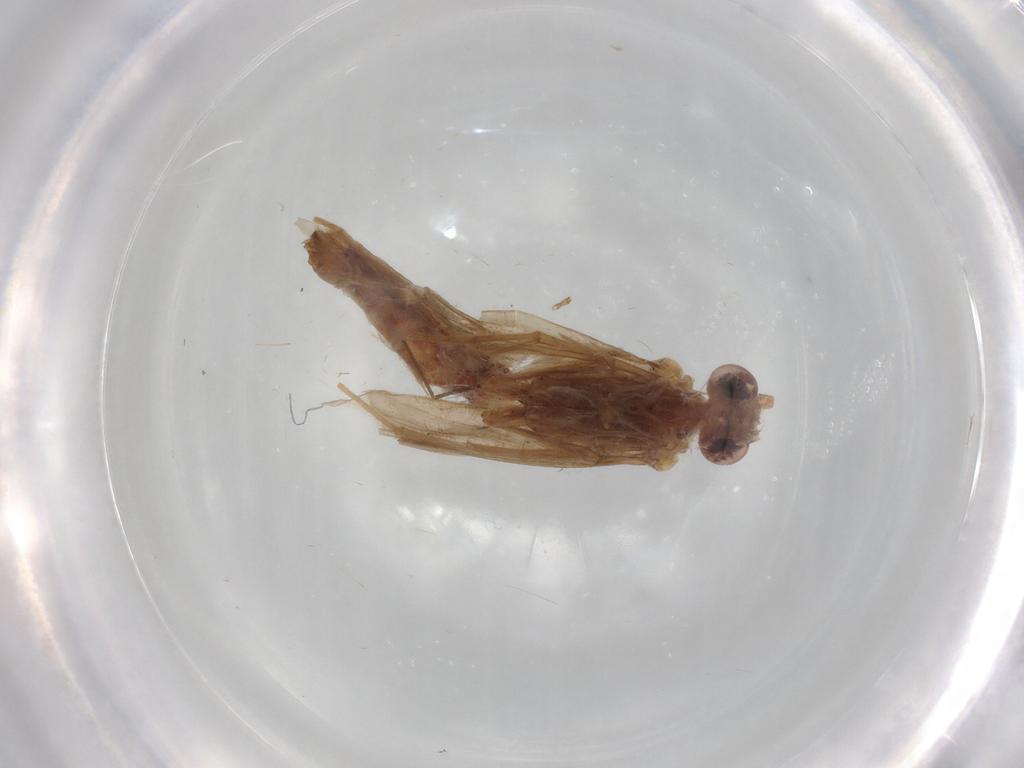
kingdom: Animalia
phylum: Arthropoda
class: Insecta
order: Trichoptera
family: Ecnomidae
